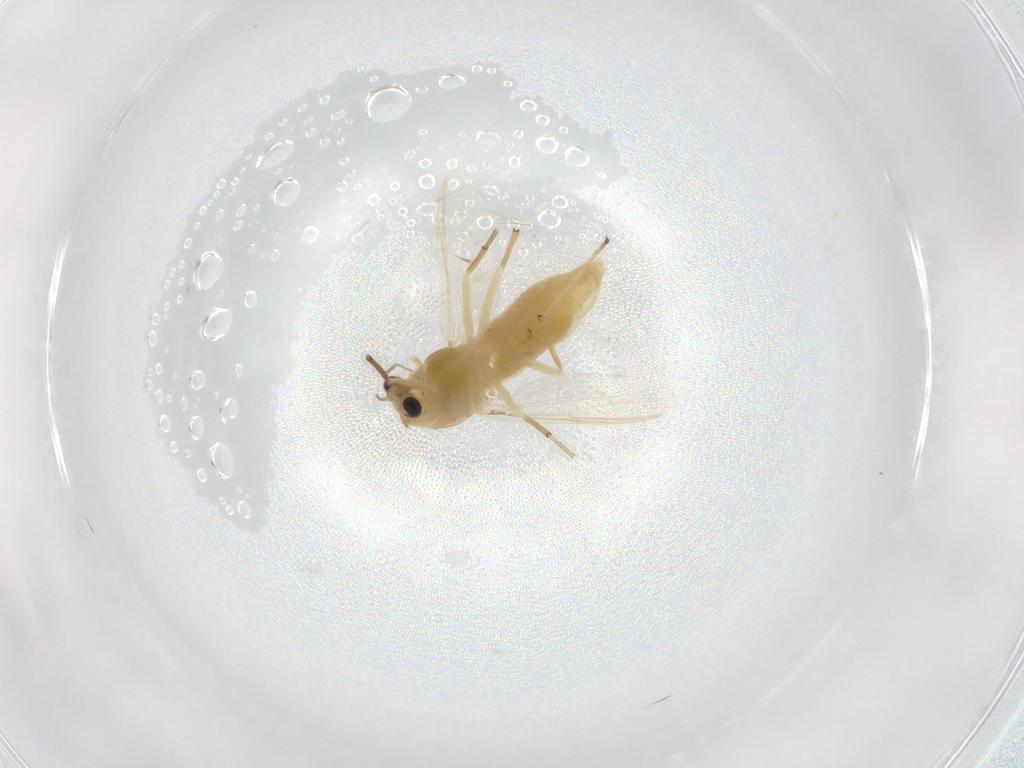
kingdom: Animalia
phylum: Arthropoda
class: Insecta
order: Diptera
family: Chironomidae
